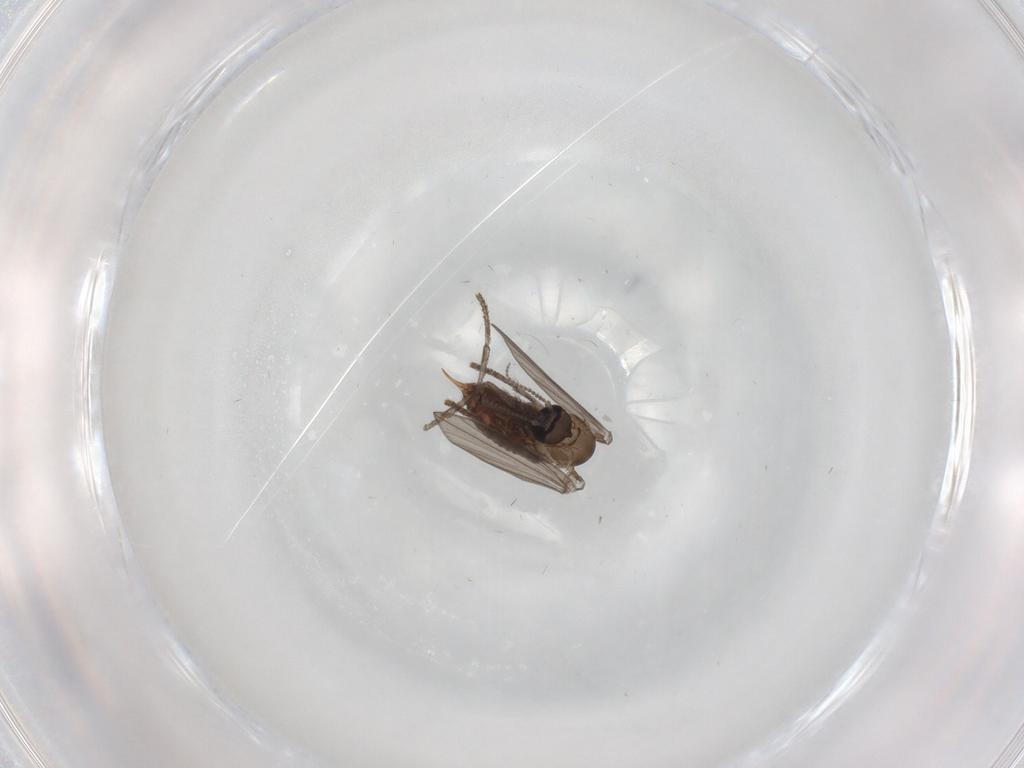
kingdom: Animalia
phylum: Arthropoda
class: Insecta
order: Diptera
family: Psychodidae
